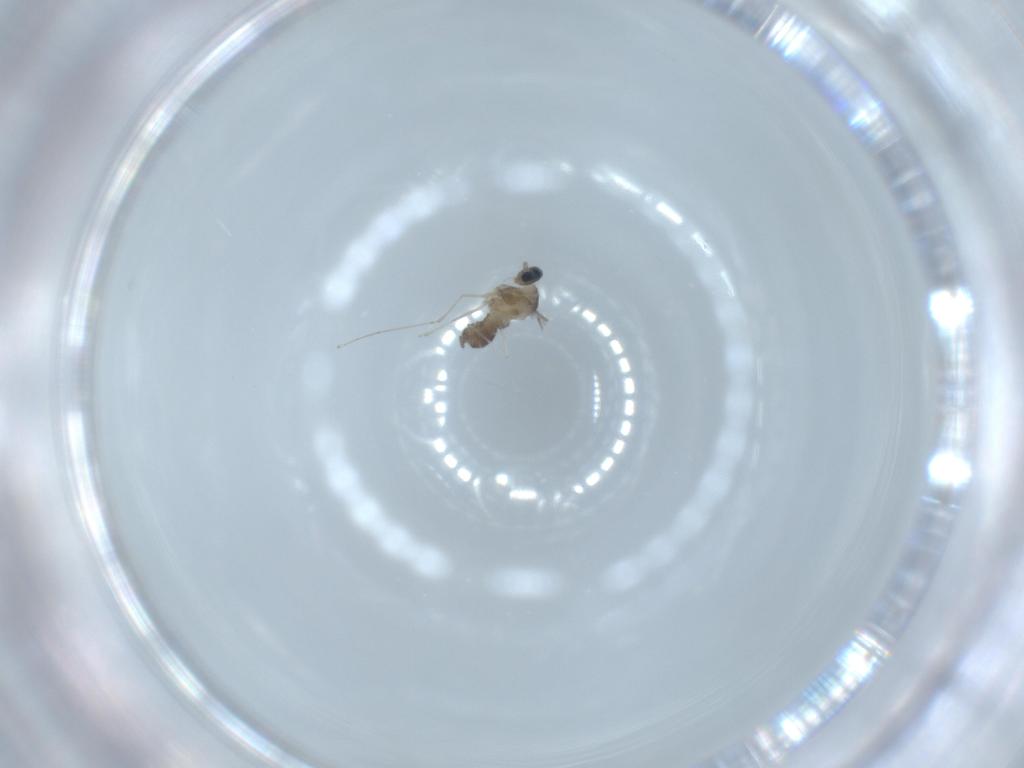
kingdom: Animalia
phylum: Arthropoda
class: Insecta
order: Diptera
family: Cecidomyiidae
